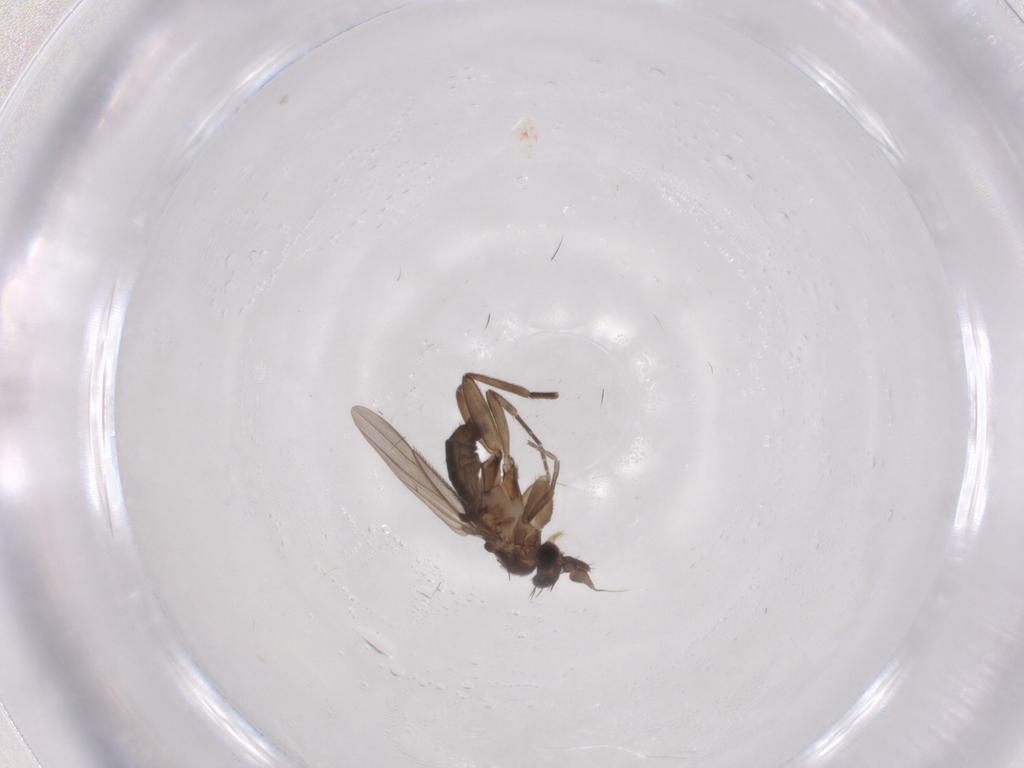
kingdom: Animalia
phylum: Arthropoda
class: Insecta
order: Diptera
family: Phoridae
